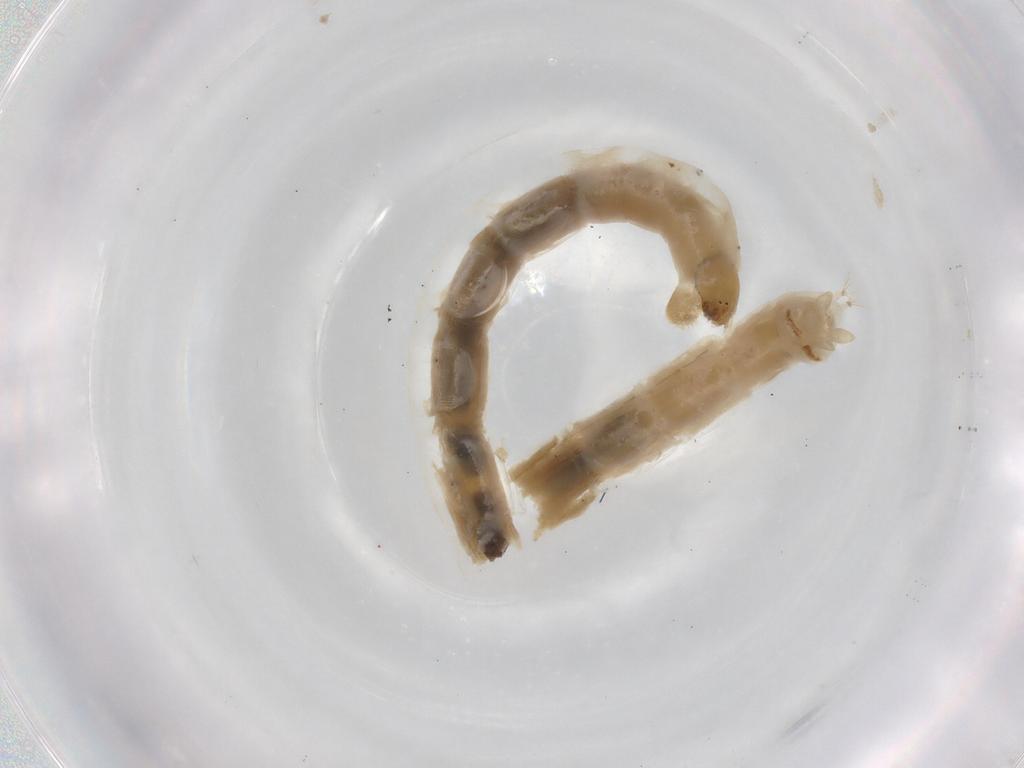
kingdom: Animalia
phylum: Arthropoda
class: Insecta
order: Diptera
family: Chironomidae
